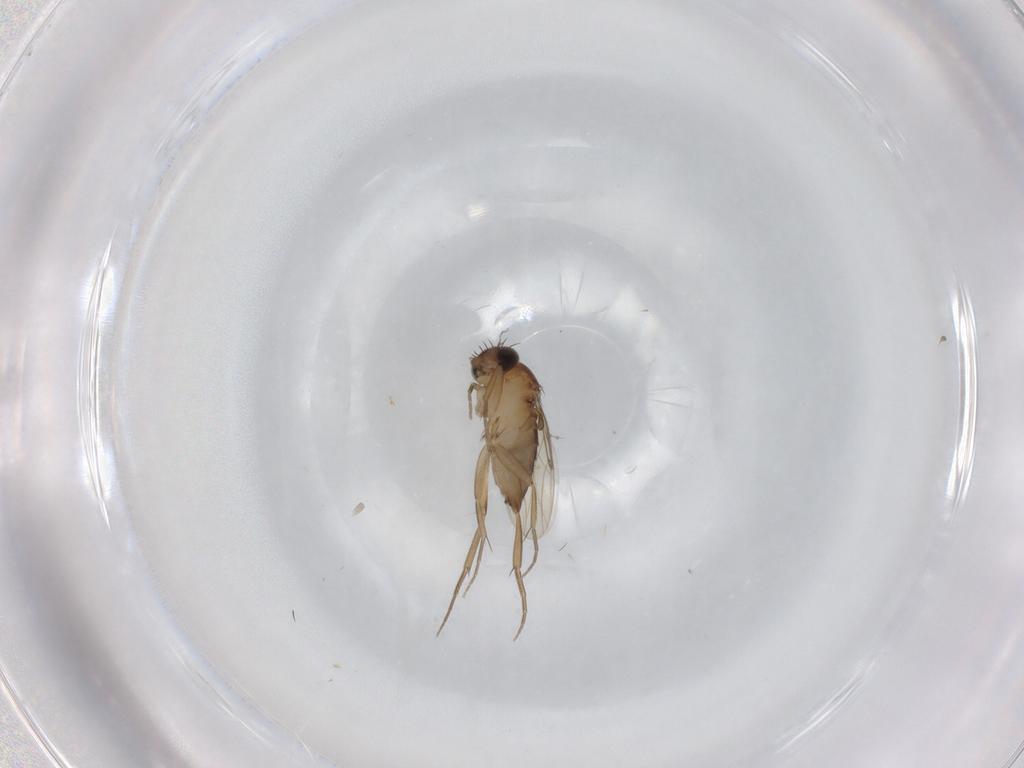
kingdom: Animalia
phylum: Arthropoda
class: Insecta
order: Diptera
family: Phoridae
